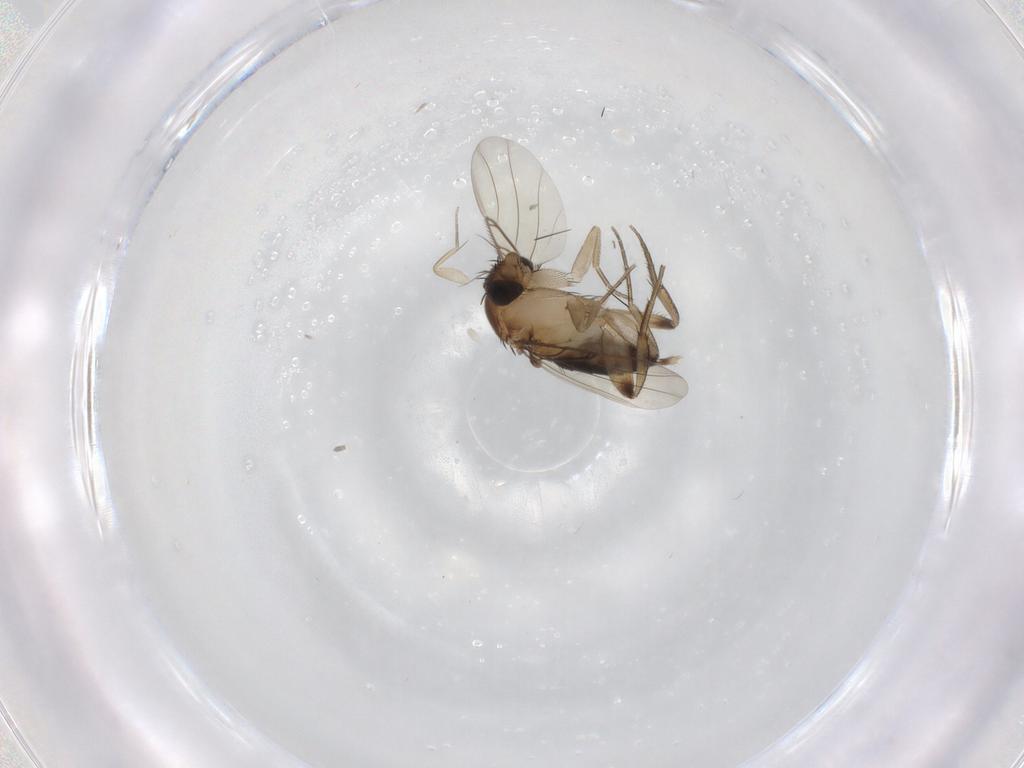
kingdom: Animalia
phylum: Arthropoda
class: Insecta
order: Diptera
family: Phoridae
